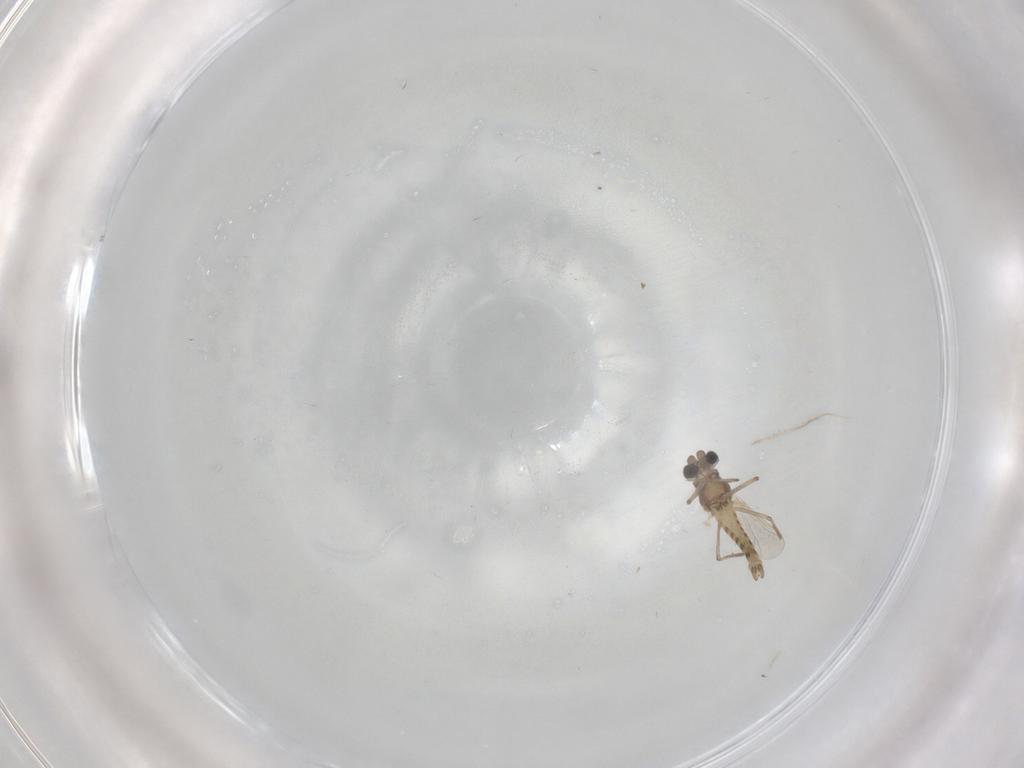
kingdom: Animalia
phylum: Arthropoda
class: Insecta
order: Diptera
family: Chironomidae
